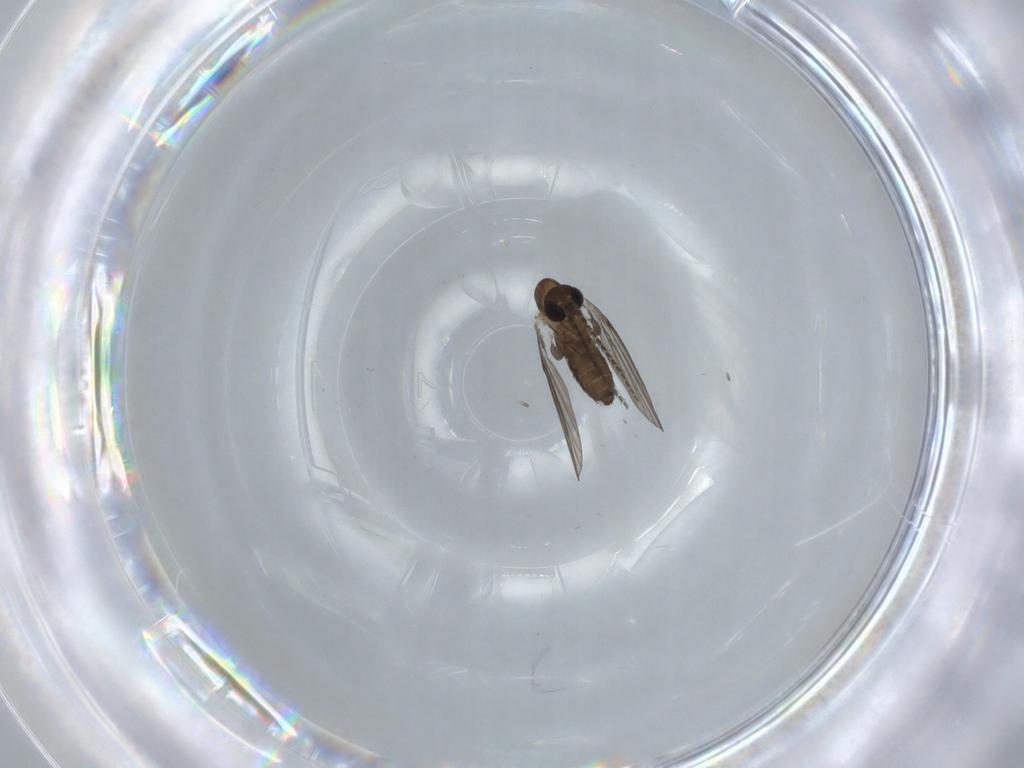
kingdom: Animalia
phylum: Arthropoda
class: Insecta
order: Diptera
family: Psychodidae
